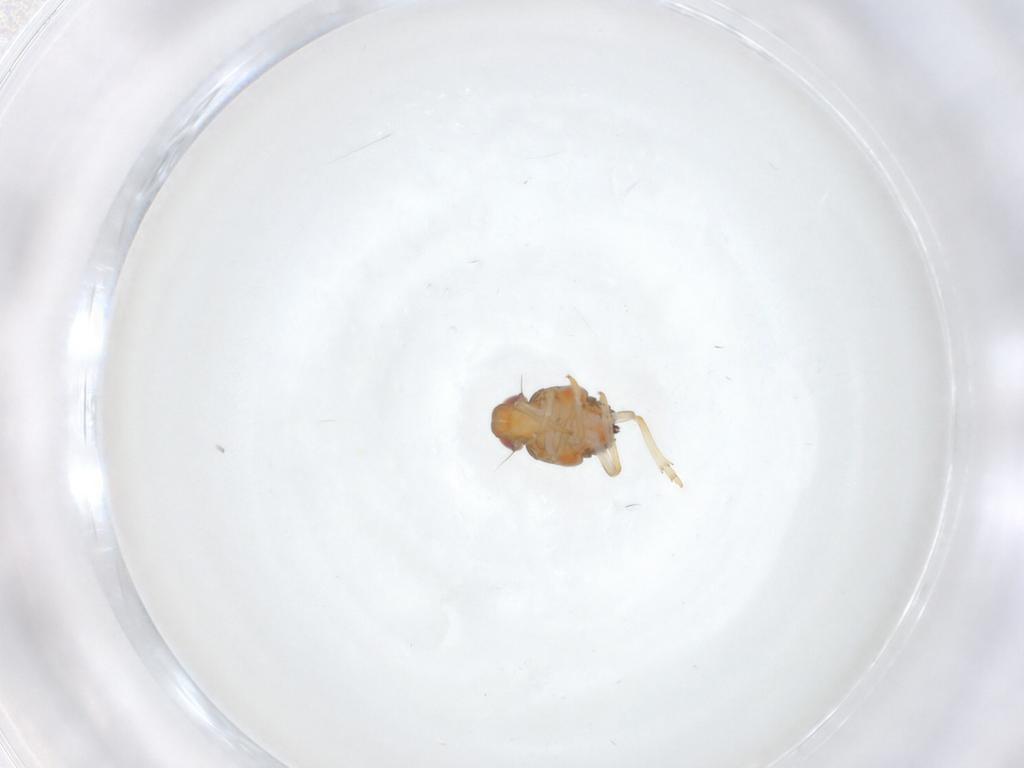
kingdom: Animalia
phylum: Arthropoda
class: Insecta
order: Hemiptera
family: Issidae
